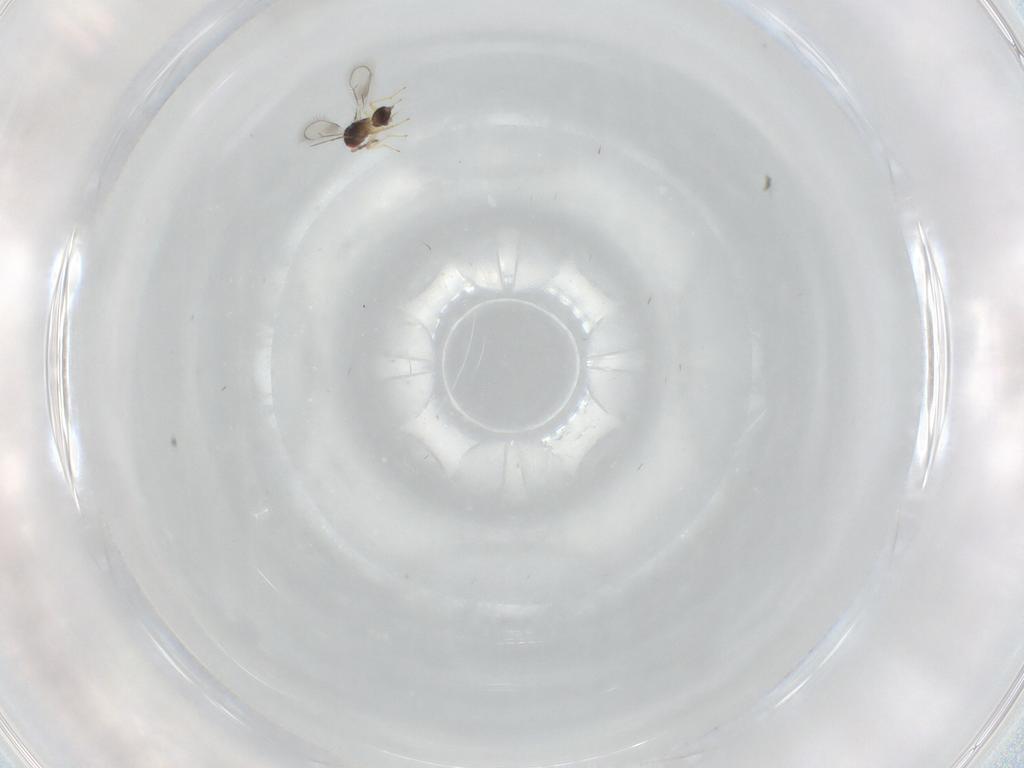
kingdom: Animalia
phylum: Arthropoda
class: Insecta
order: Hymenoptera
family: Eulophidae
